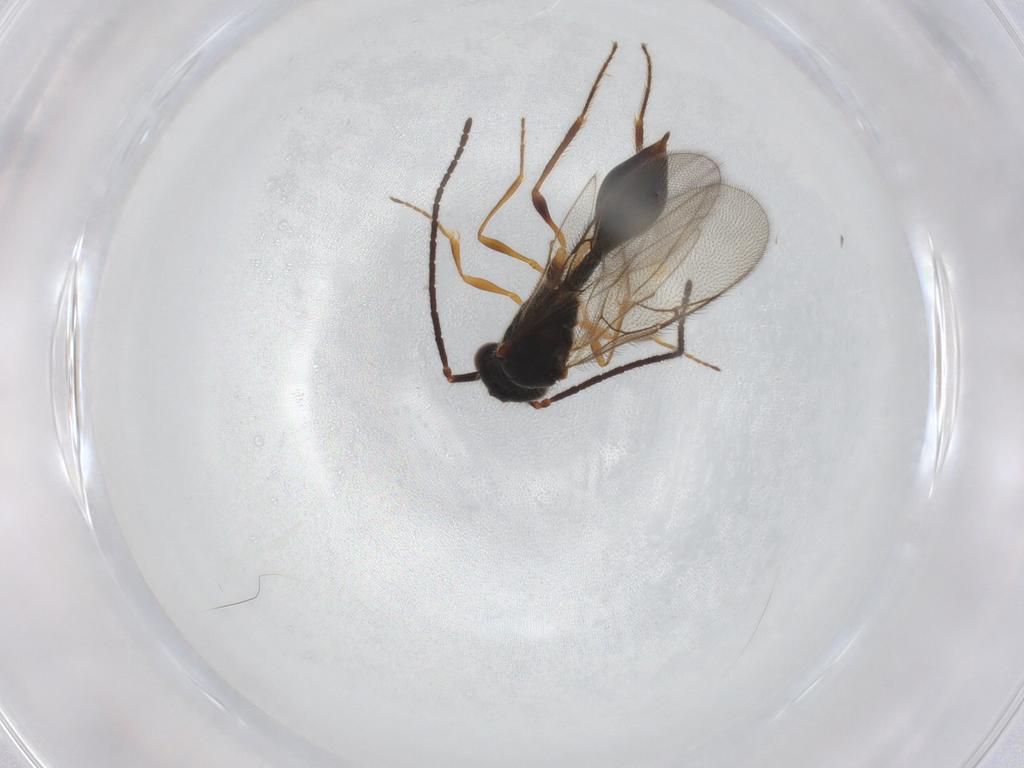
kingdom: Animalia
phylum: Arthropoda
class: Insecta
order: Hymenoptera
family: Diapriidae
